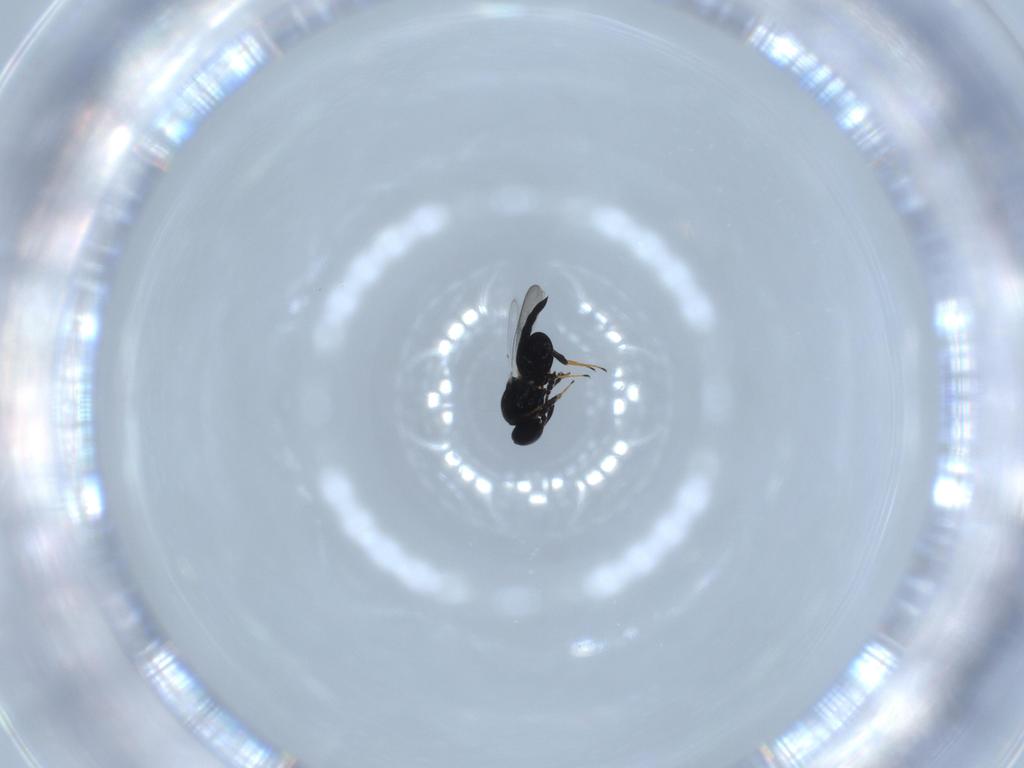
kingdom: Animalia
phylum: Arthropoda
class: Insecta
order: Hymenoptera
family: Platygastridae
